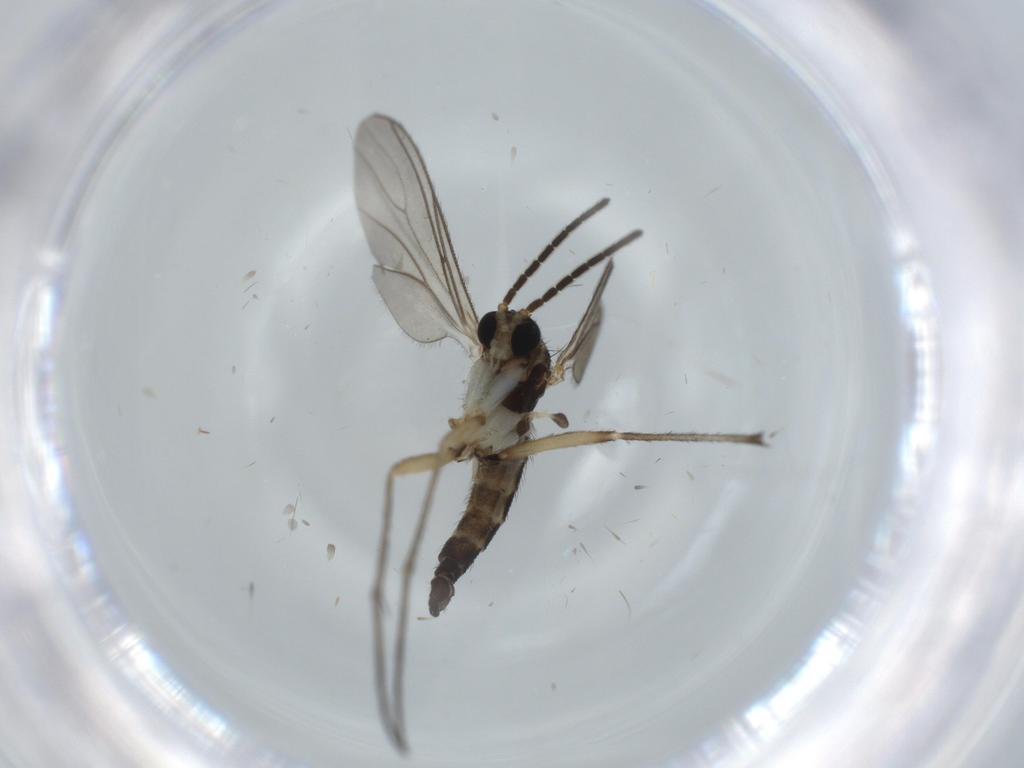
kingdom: Animalia
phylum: Arthropoda
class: Insecta
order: Diptera
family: Sciaridae
